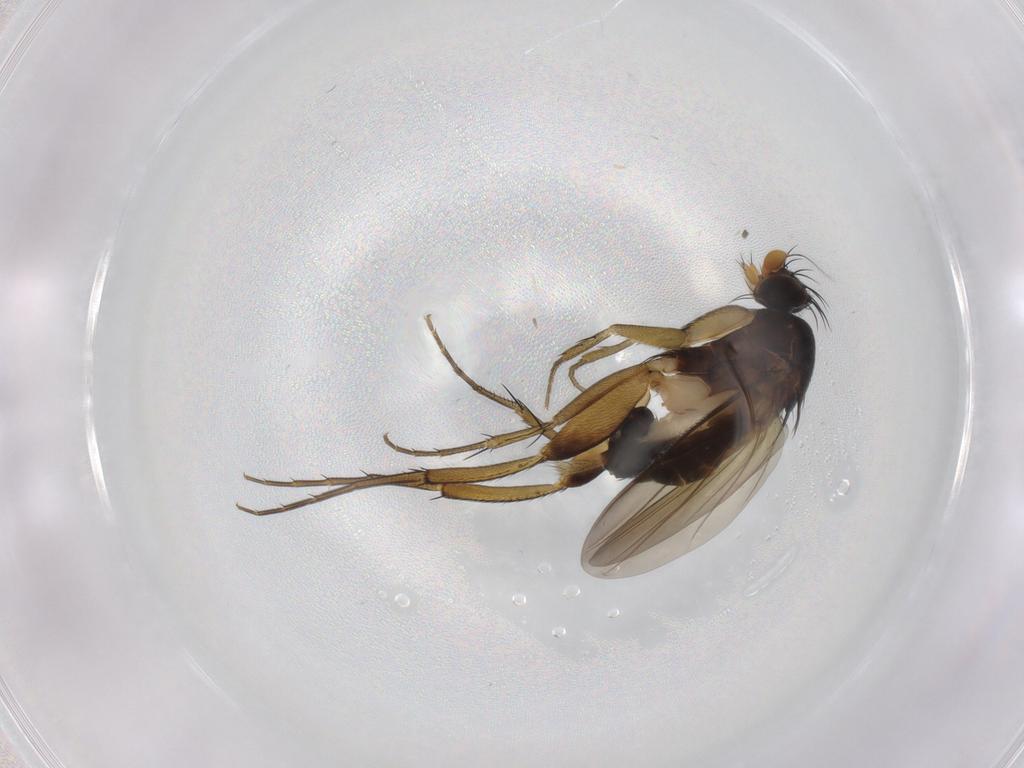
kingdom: Animalia
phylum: Arthropoda
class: Insecta
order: Diptera
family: Phoridae
